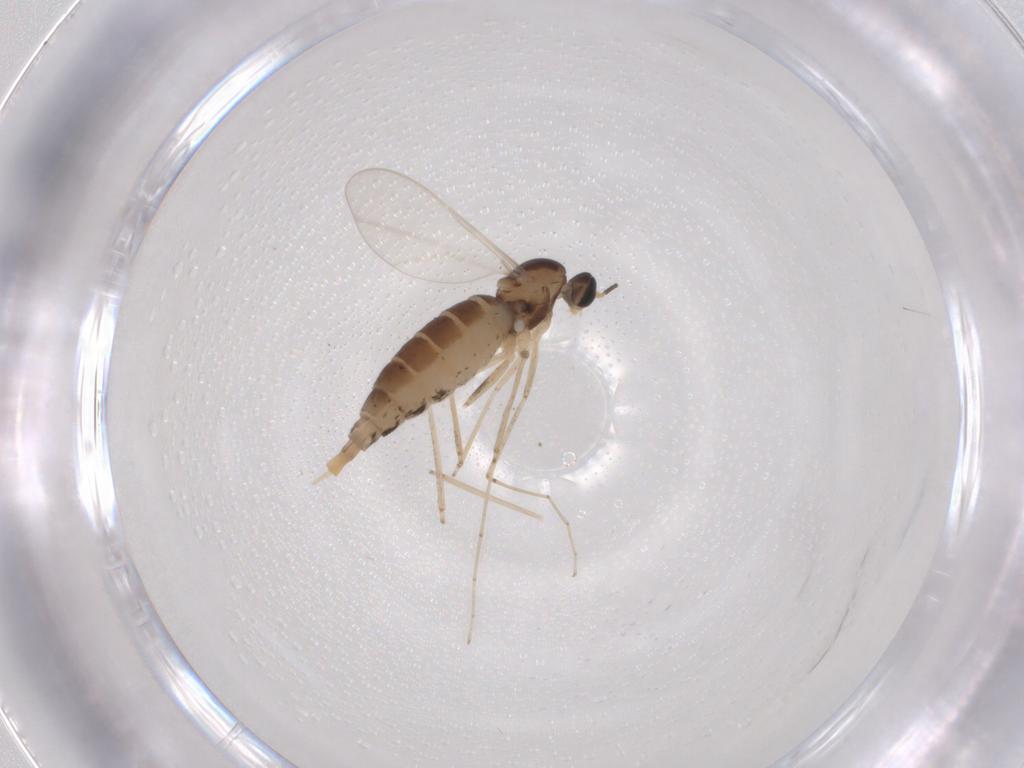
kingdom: Animalia
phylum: Arthropoda
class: Insecta
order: Diptera
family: Cecidomyiidae
